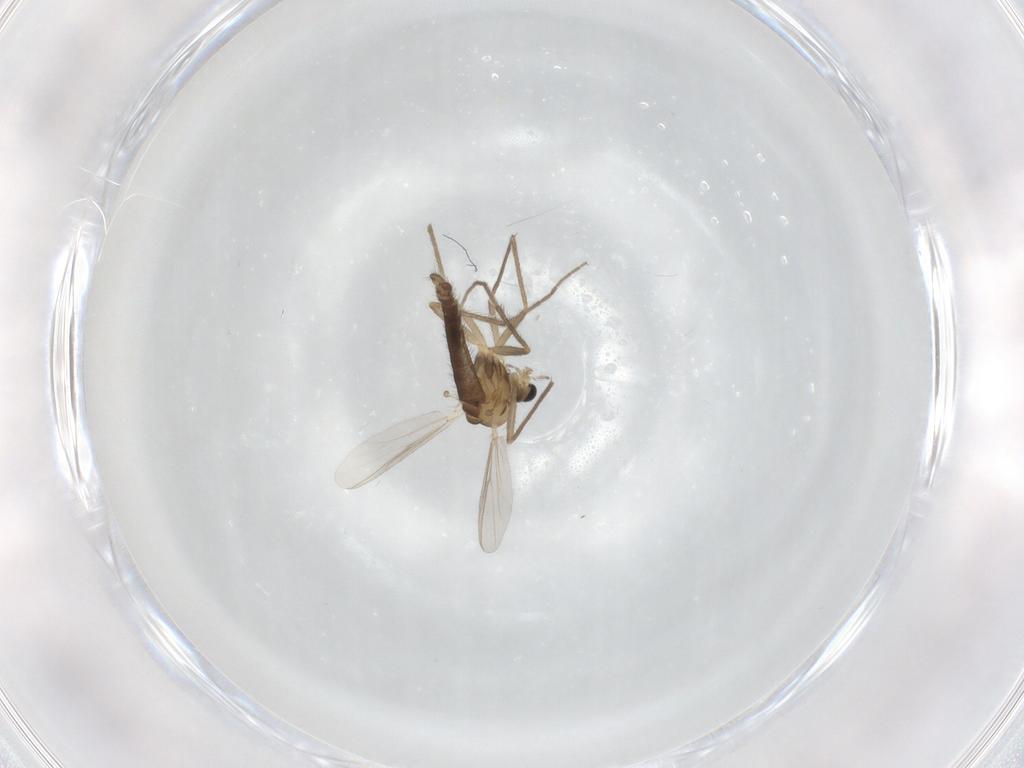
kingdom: Animalia
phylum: Arthropoda
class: Insecta
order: Diptera
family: Chironomidae
